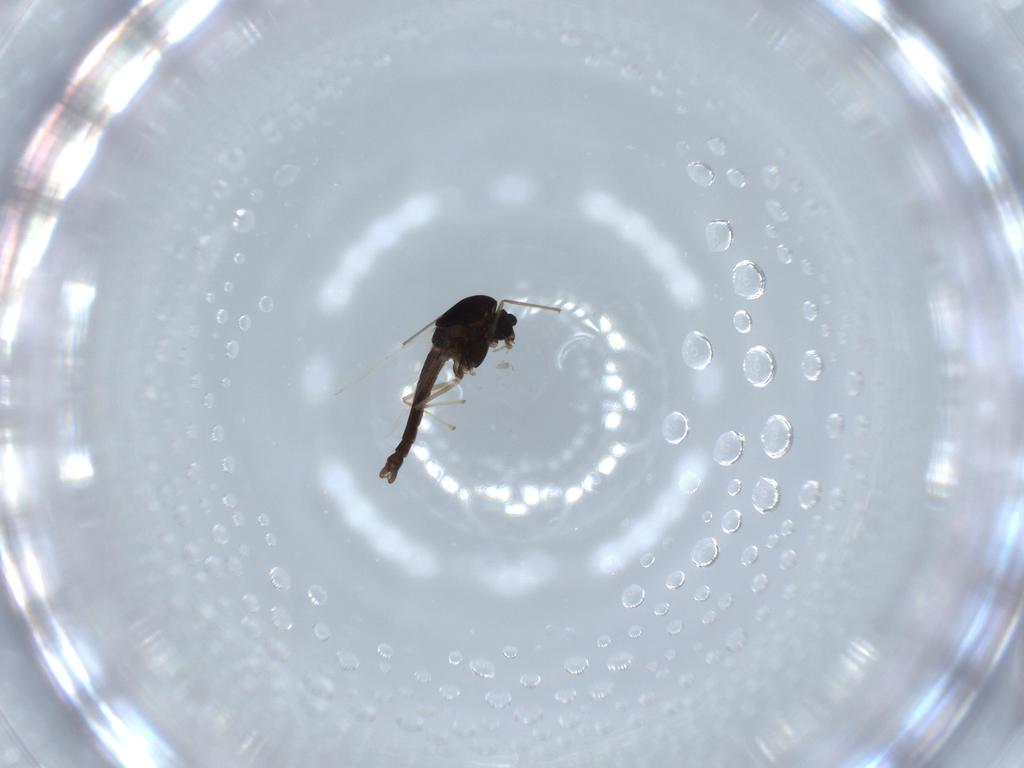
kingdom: Animalia
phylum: Arthropoda
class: Insecta
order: Diptera
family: Chironomidae
